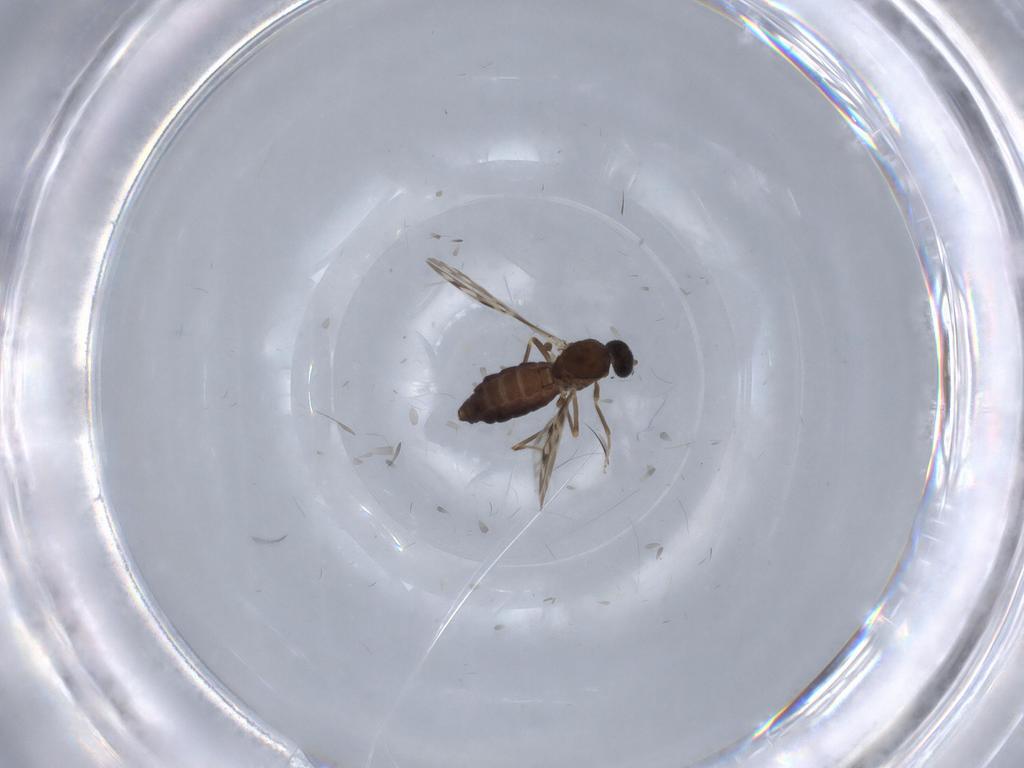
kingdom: Animalia
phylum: Arthropoda
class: Insecta
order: Diptera
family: Ceratopogonidae
